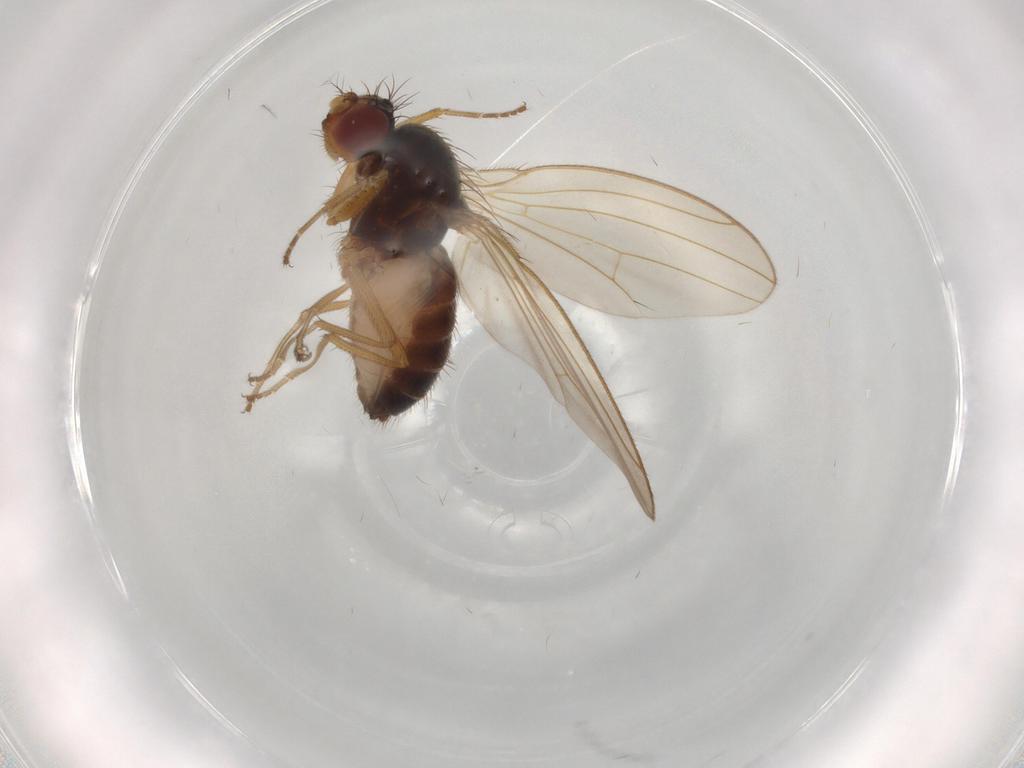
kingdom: Animalia
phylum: Arthropoda
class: Insecta
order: Diptera
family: Drosophilidae
